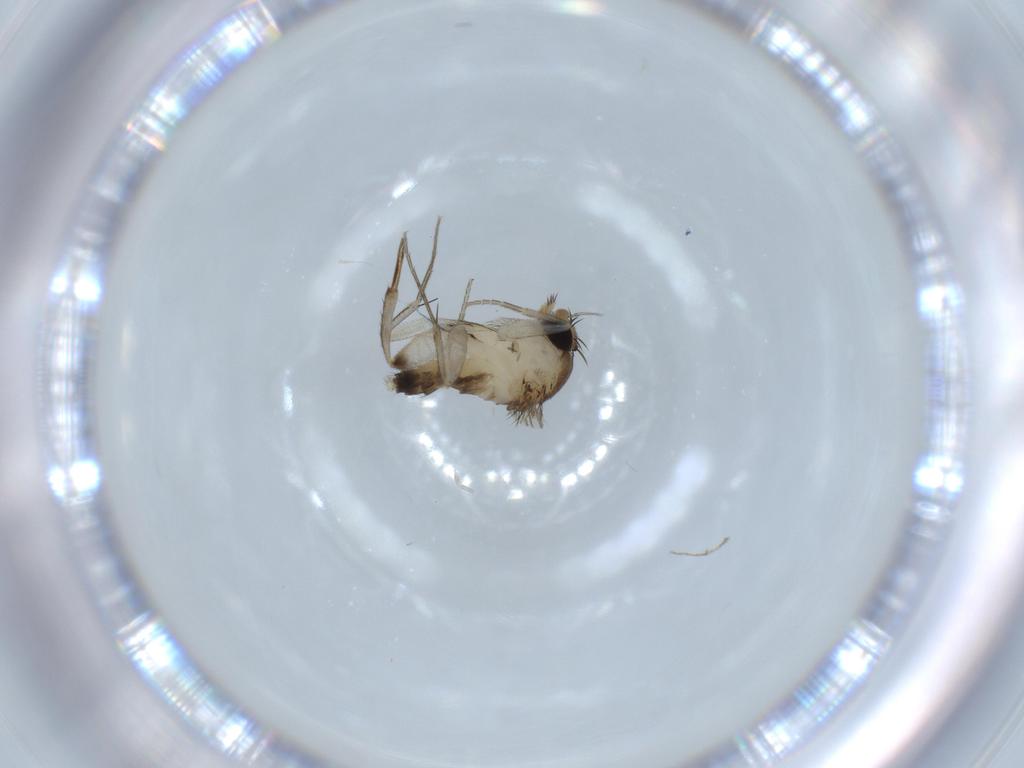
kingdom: Animalia
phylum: Arthropoda
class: Insecta
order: Diptera
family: Phoridae
